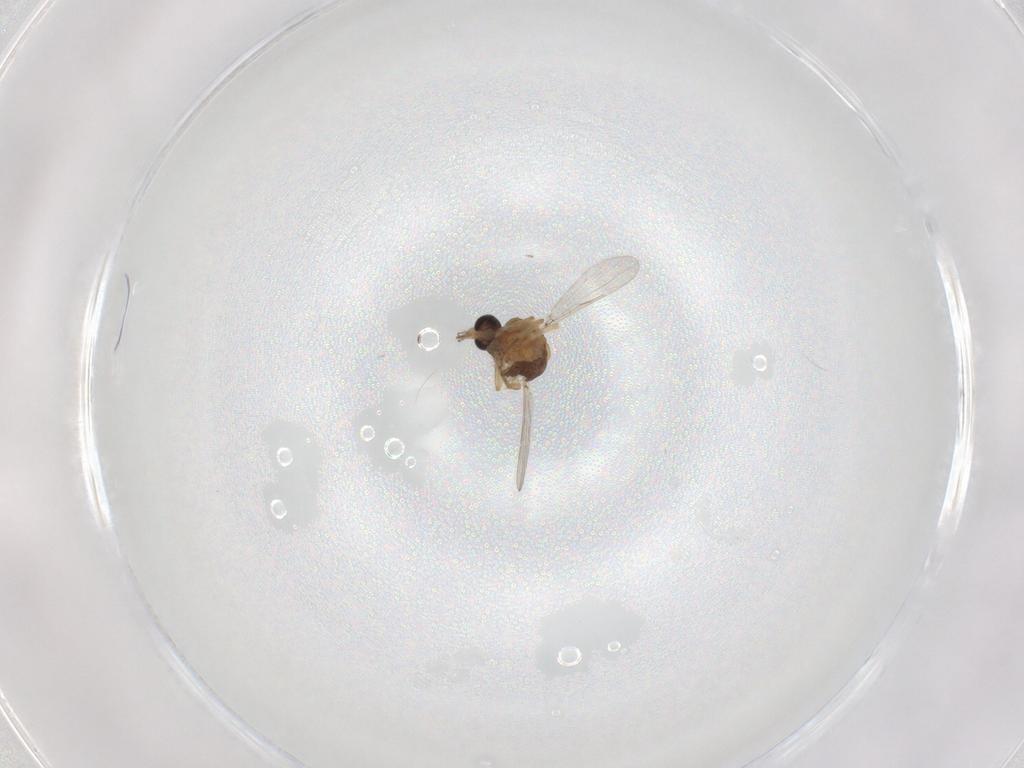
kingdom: Animalia
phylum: Arthropoda
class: Insecta
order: Diptera
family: Ceratopogonidae
